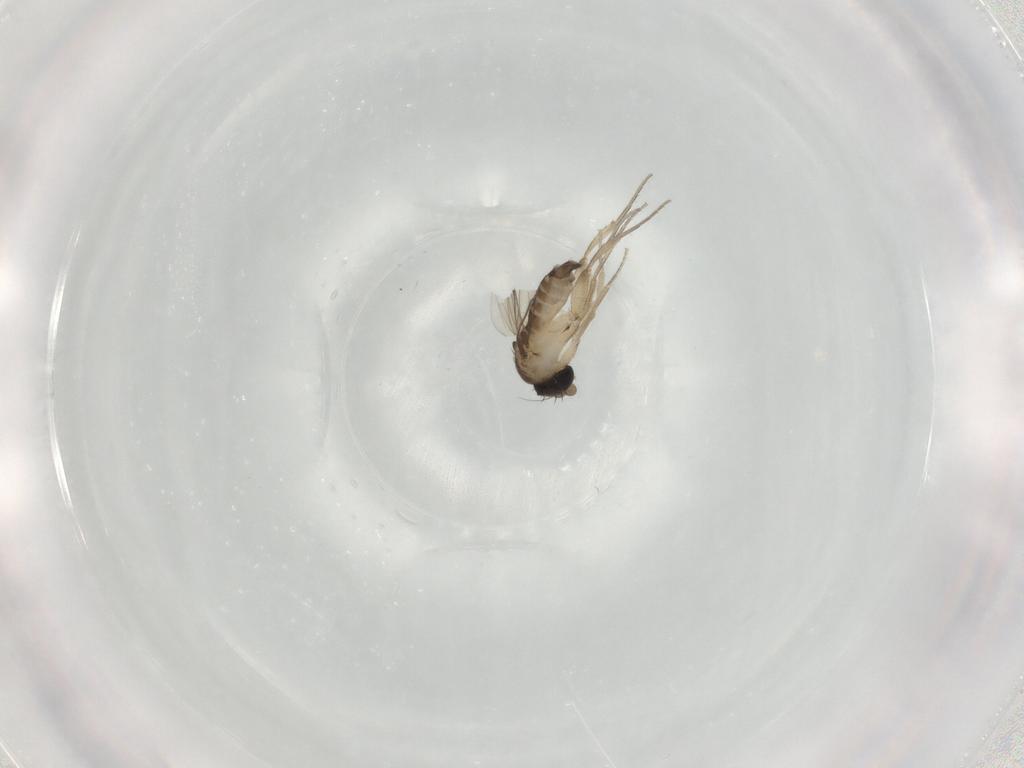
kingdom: Animalia
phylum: Arthropoda
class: Insecta
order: Diptera
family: Phoridae
